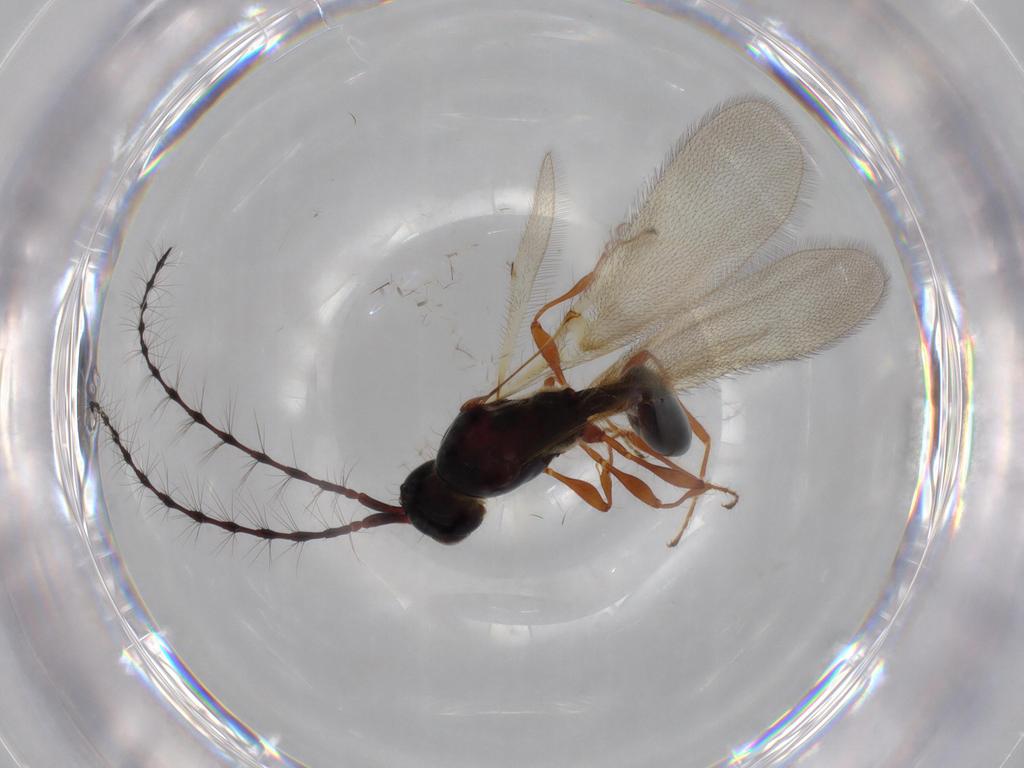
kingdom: Animalia
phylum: Arthropoda
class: Insecta
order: Hymenoptera
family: Diapriidae
